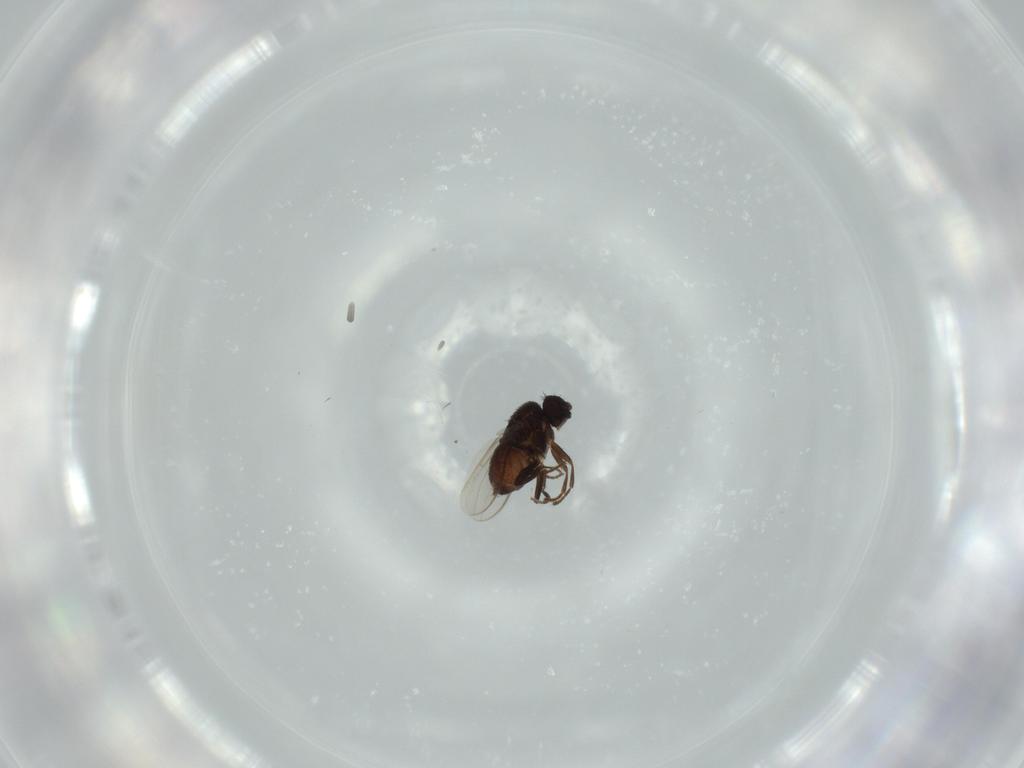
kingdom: Animalia
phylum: Arthropoda
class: Insecta
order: Diptera
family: Sphaeroceridae
